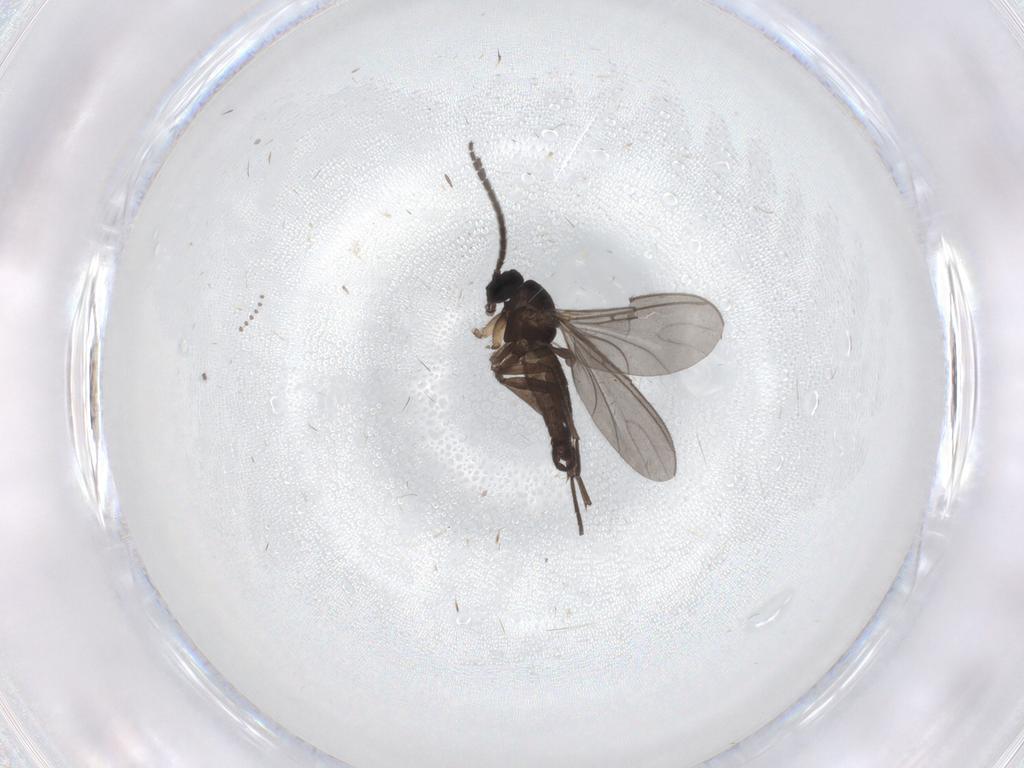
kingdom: Animalia
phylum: Arthropoda
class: Insecta
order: Diptera
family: Sciaridae
